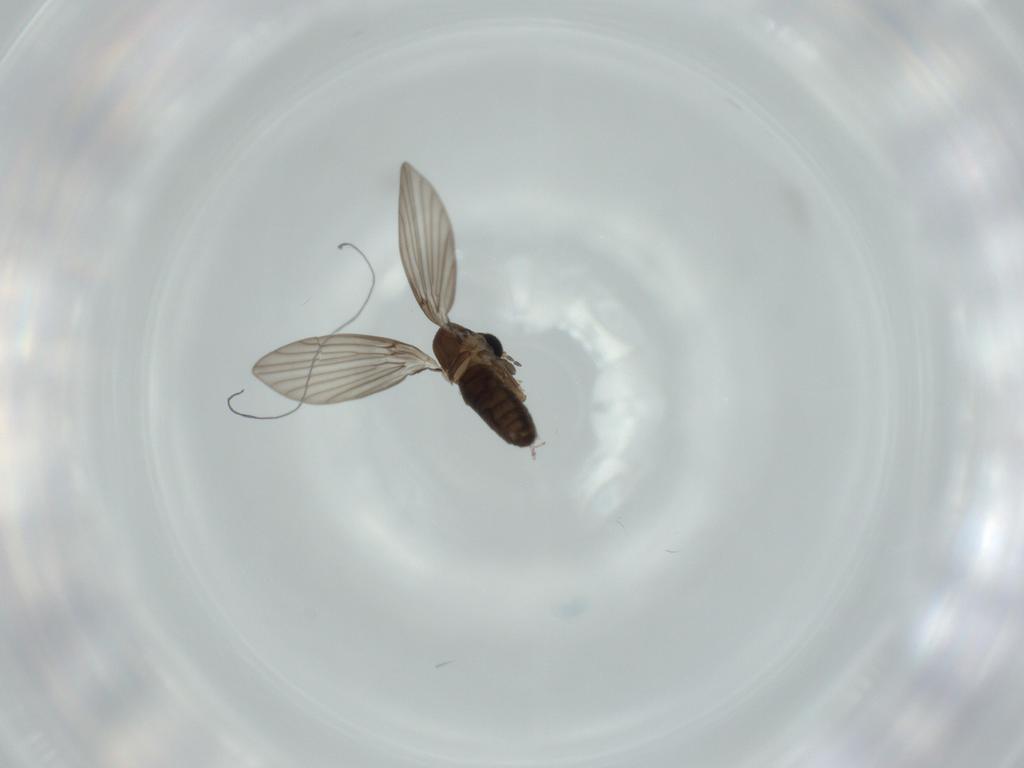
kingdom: Animalia
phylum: Arthropoda
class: Insecta
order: Diptera
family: Psychodidae
